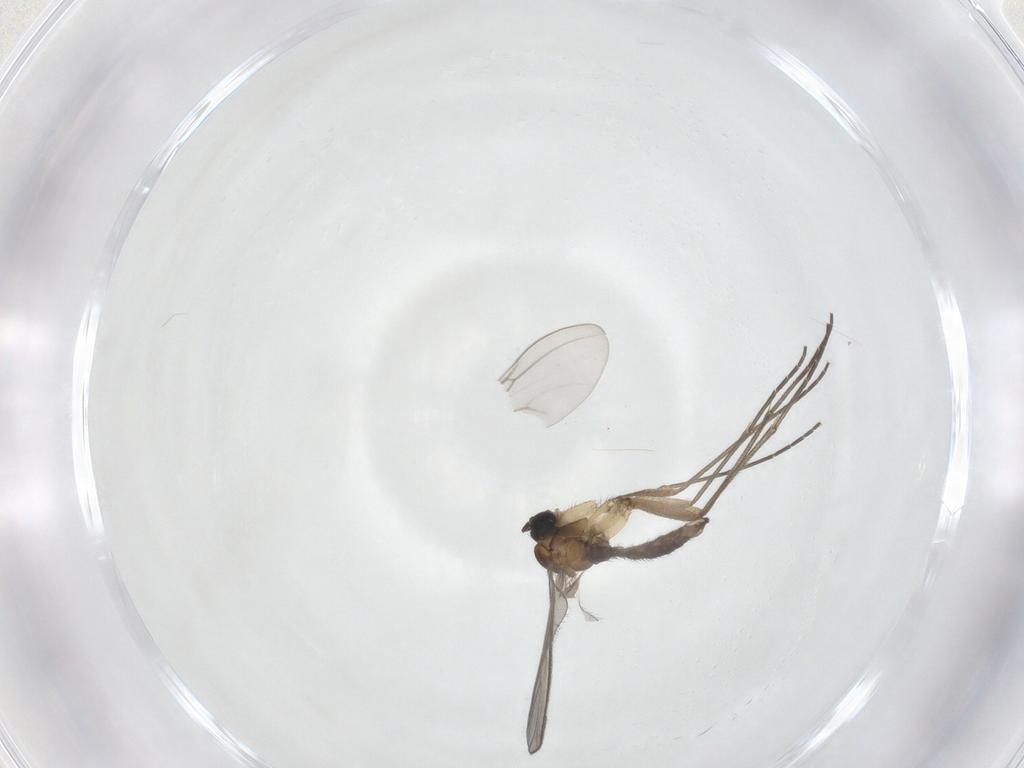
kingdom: Animalia
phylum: Arthropoda
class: Insecta
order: Diptera
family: Sciaridae
